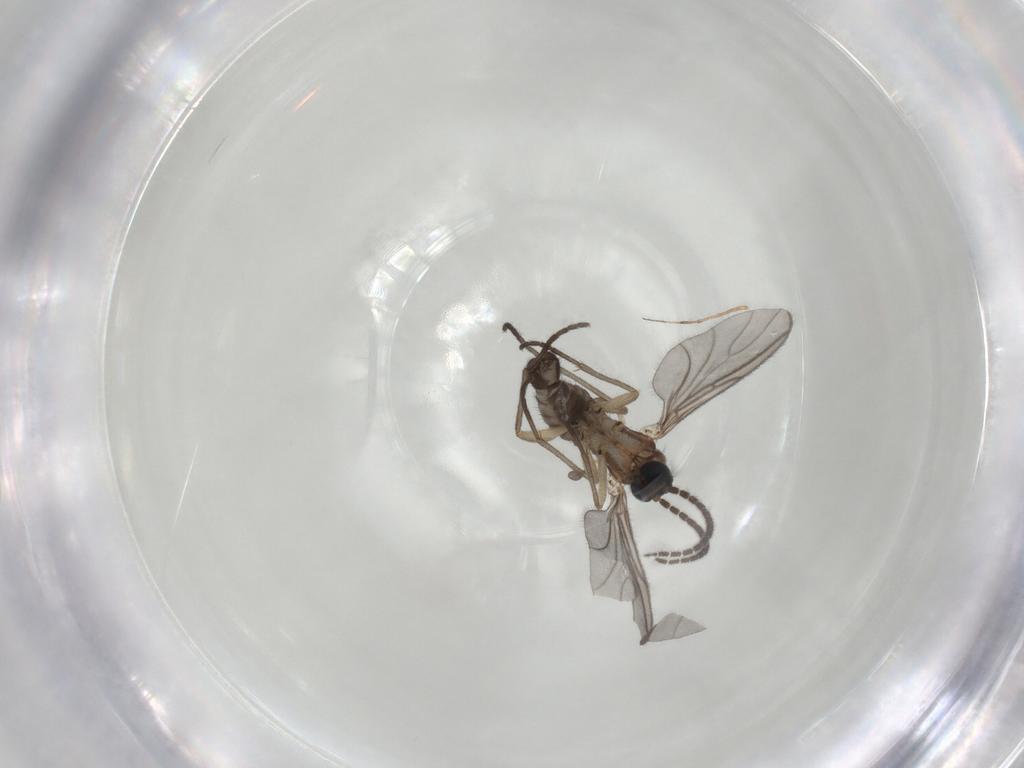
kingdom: Animalia
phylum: Arthropoda
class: Insecta
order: Diptera
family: Sciaridae
